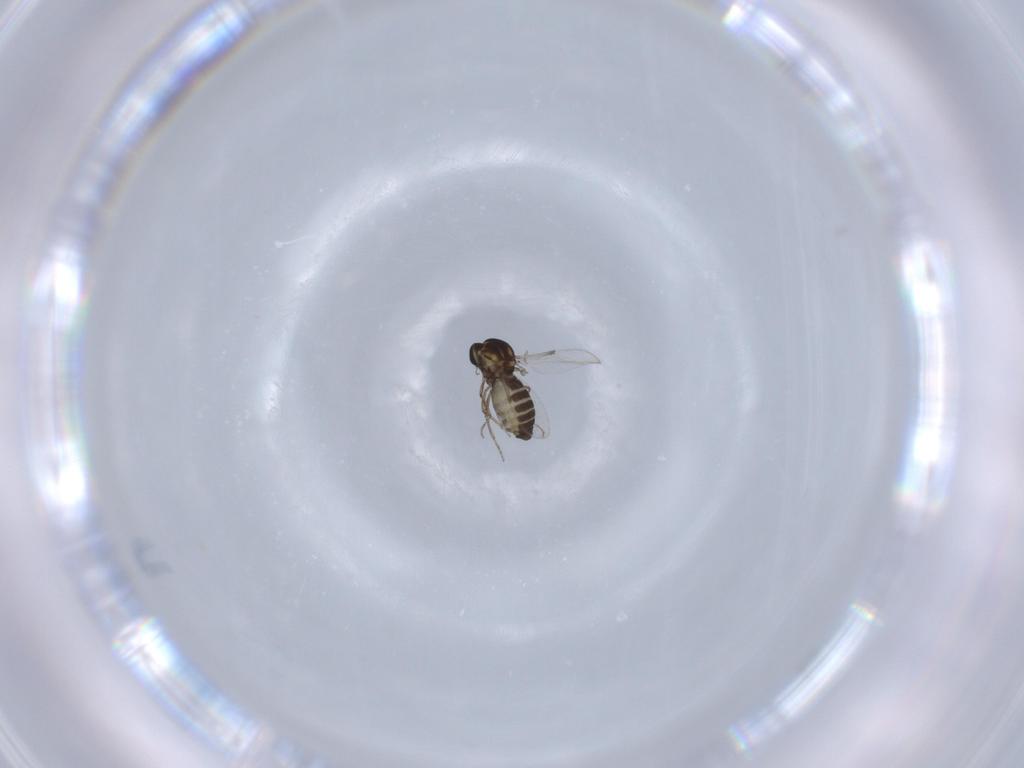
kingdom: Animalia
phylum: Arthropoda
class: Insecta
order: Diptera
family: Ceratopogonidae
